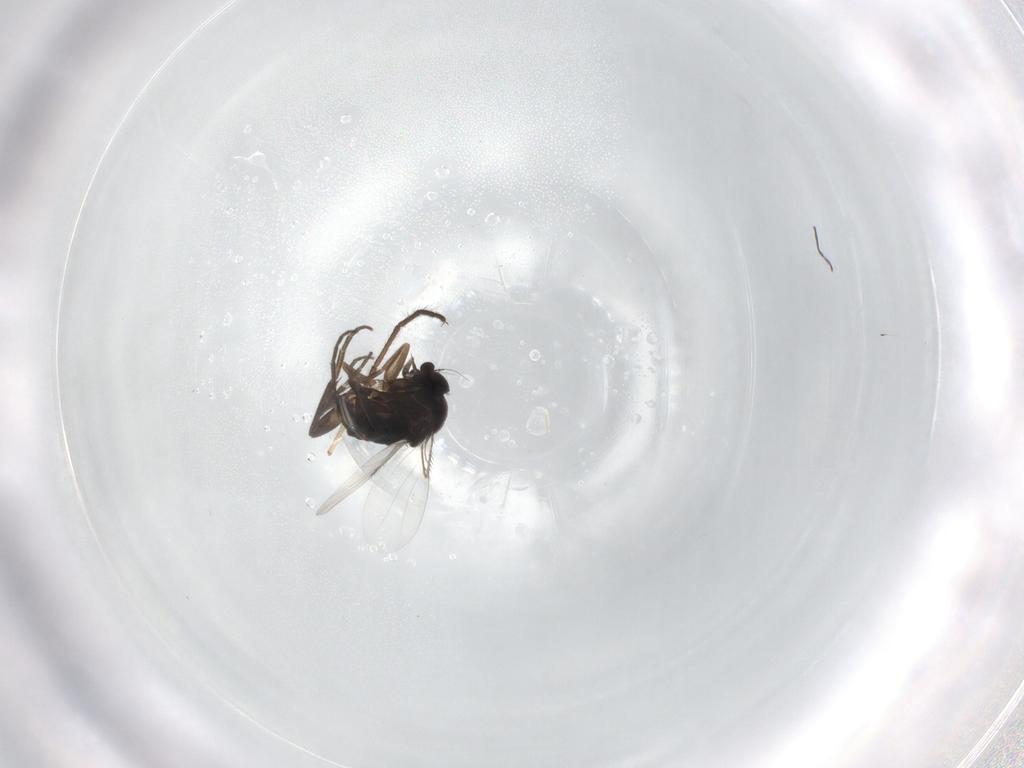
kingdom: Animalia
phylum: Arthropoda
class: Insecta
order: Diptera
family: Phoridae
